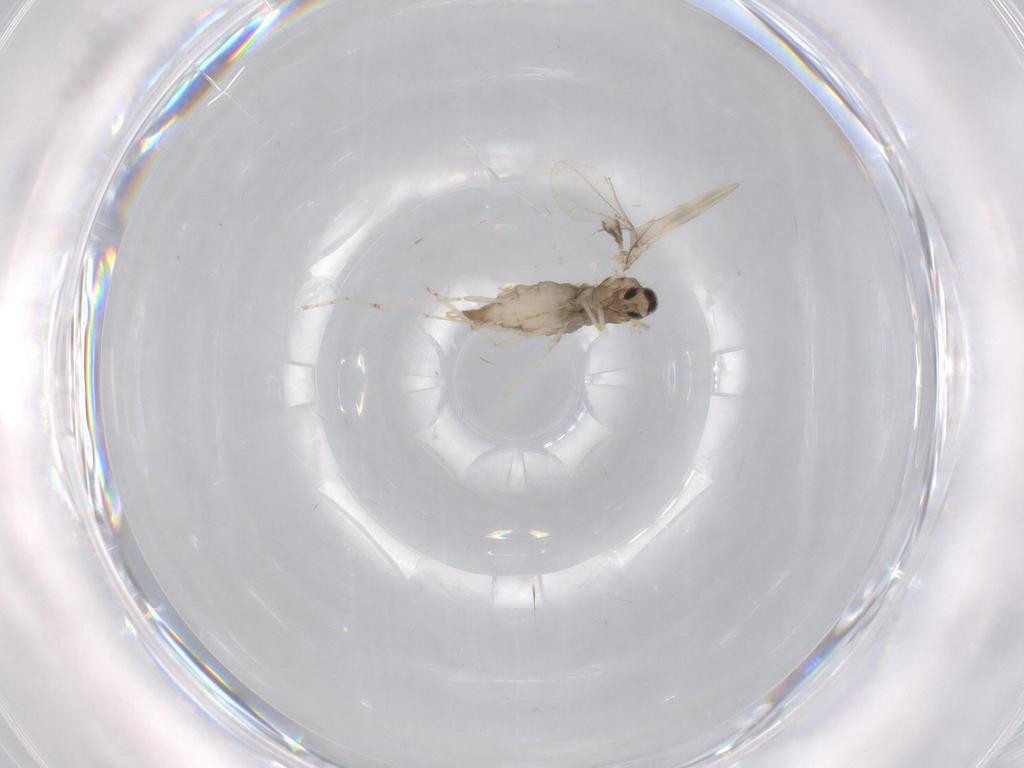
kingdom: Animalia
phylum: Arthropoda
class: Insecta
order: Diptera
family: Cecidomyiidae
